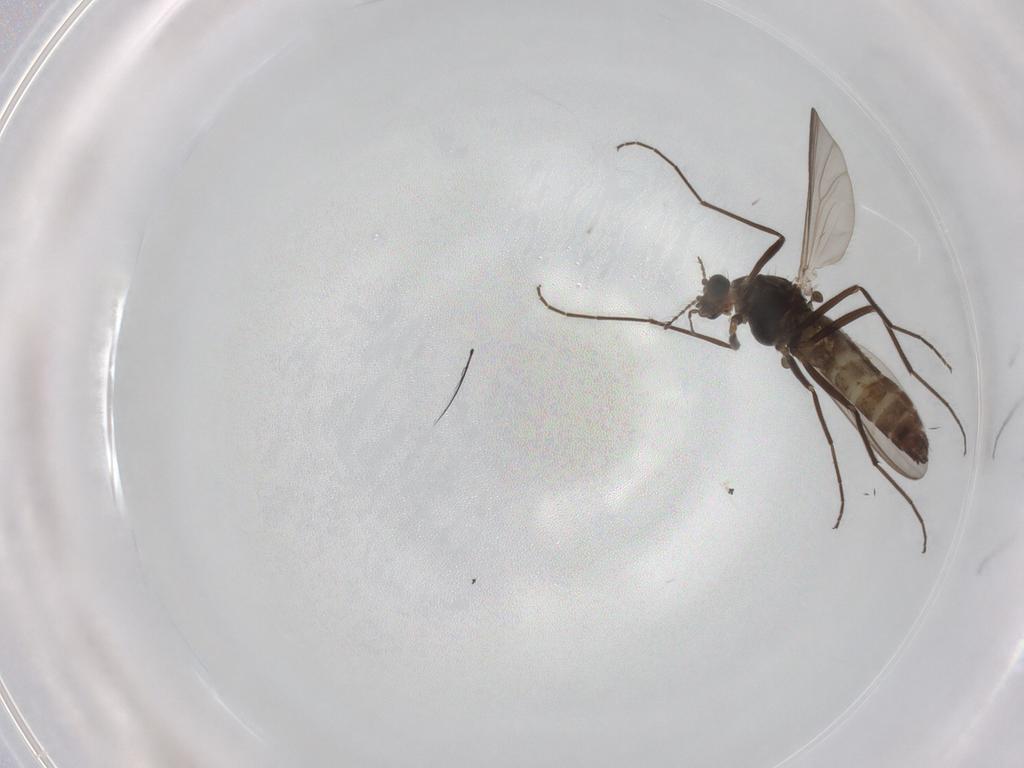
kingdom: Animalia
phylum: Arthropoda
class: Insecta
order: Diptera
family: Chironomidae
